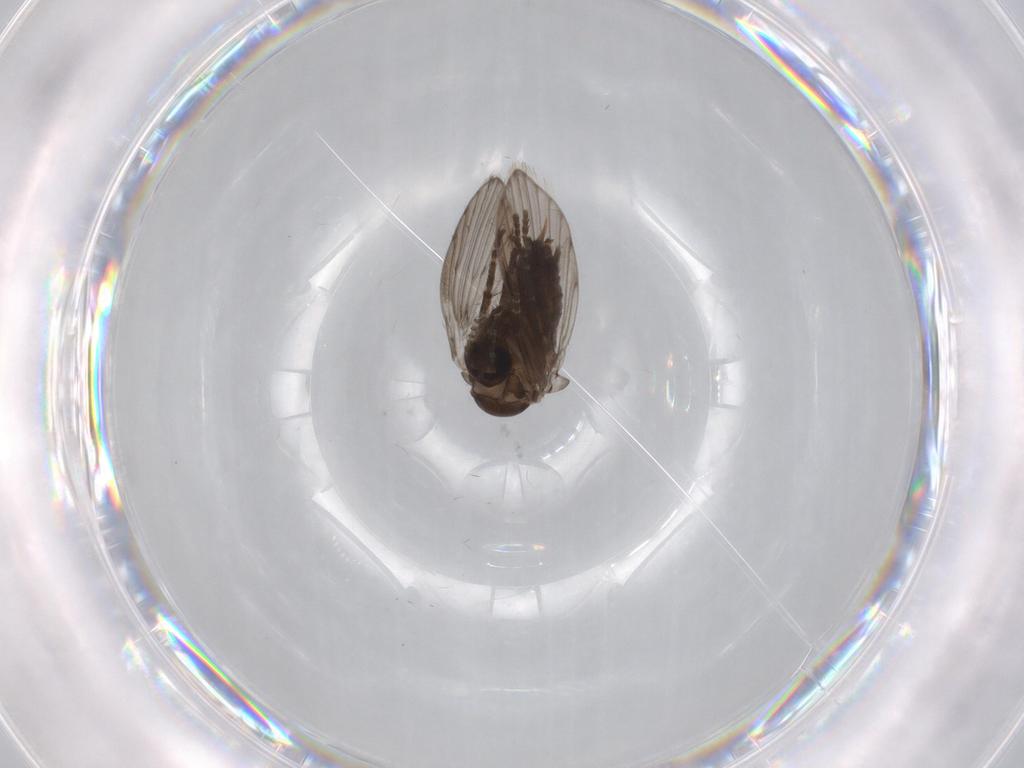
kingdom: Animalia
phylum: Arthropoda
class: Insecta
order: Diptera
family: Psychodidae
